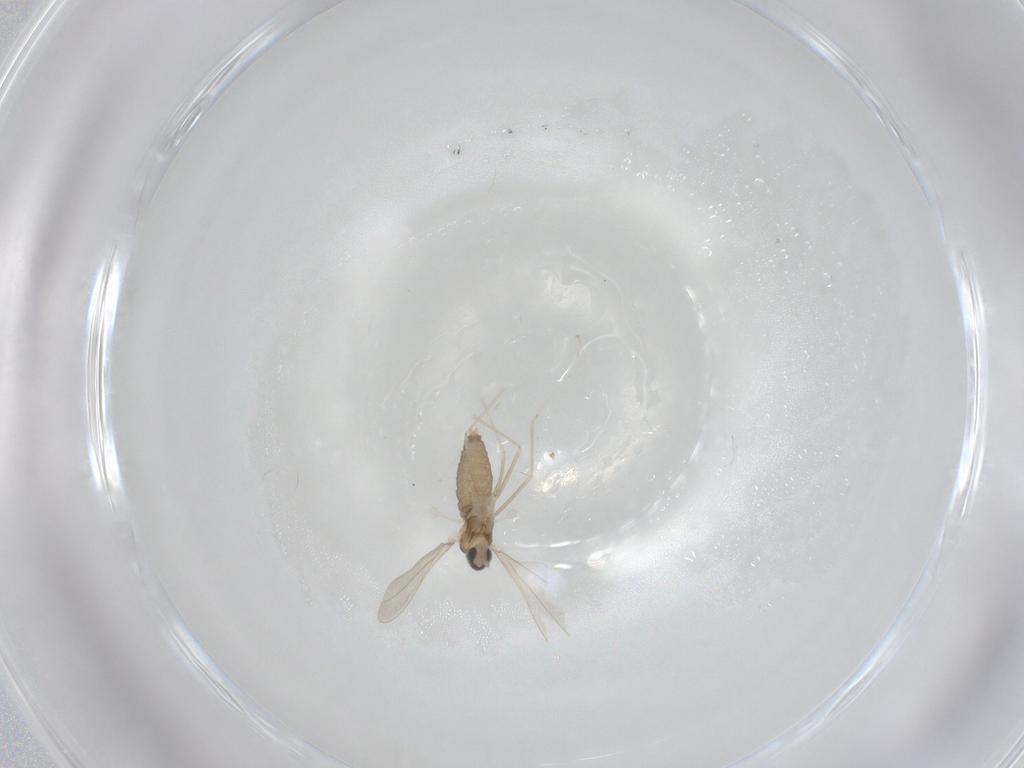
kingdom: Animalia
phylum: Arthropoda
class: Insecta
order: Diptera
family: Cecidomyiidae
